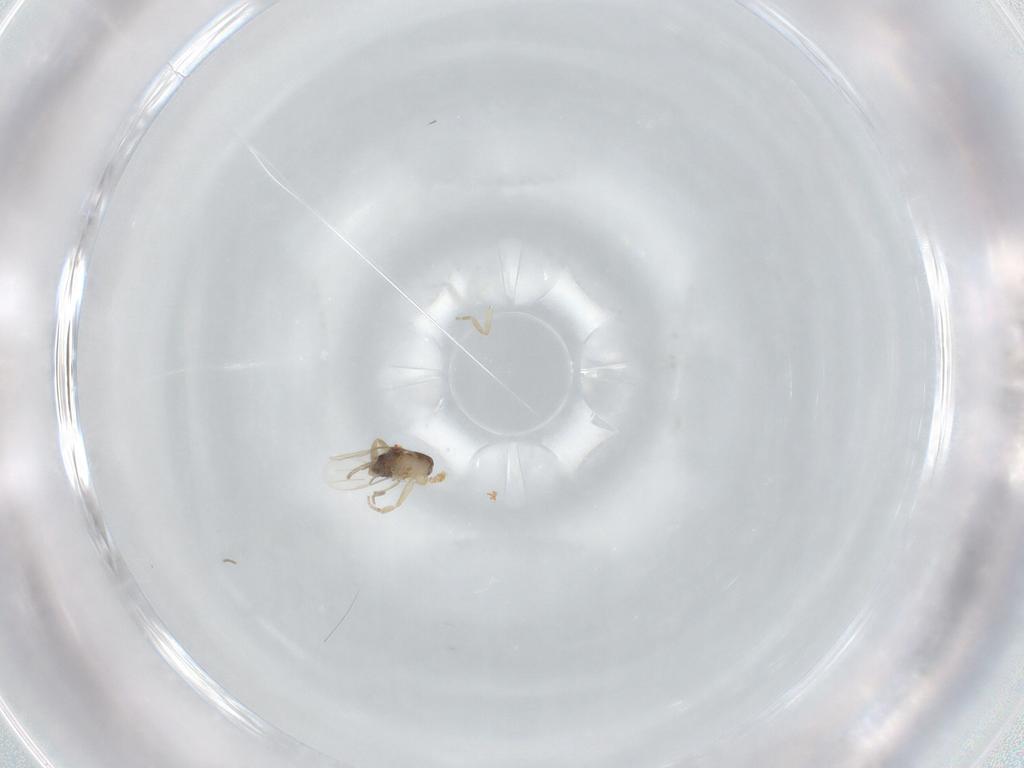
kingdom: Animalia
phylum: Arthropoda
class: Insecta
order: Diptera
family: Phoridae
